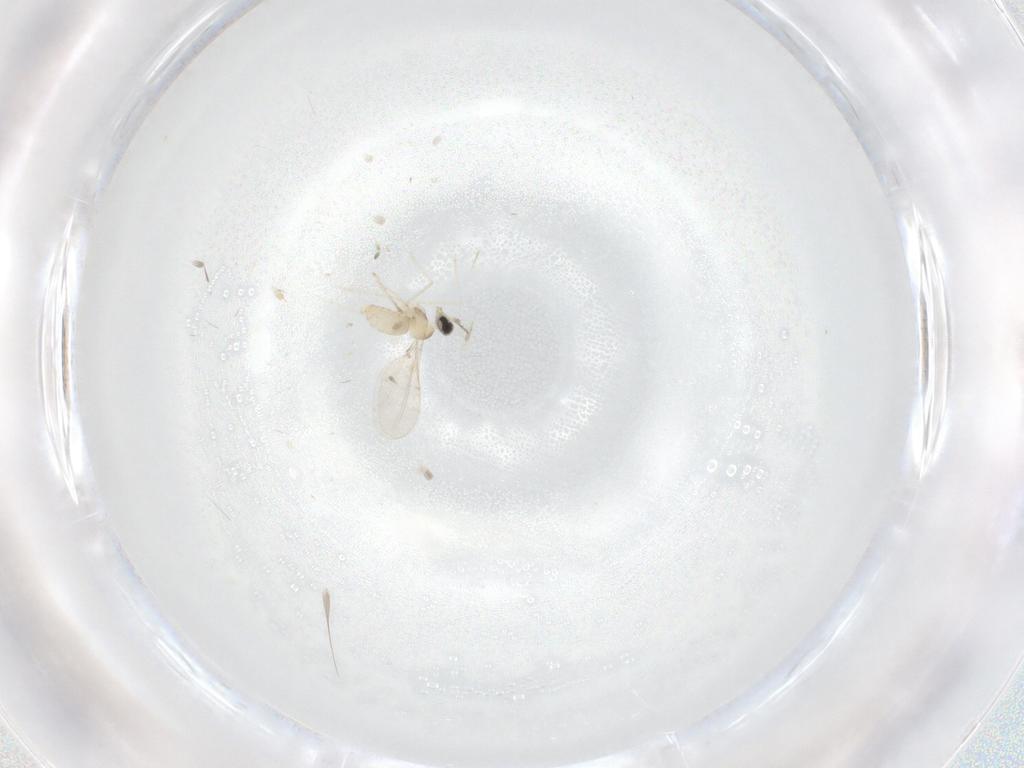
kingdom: Animalia
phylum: Arthropoda
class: Insecta
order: Diptera
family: Cecidomyiidae
